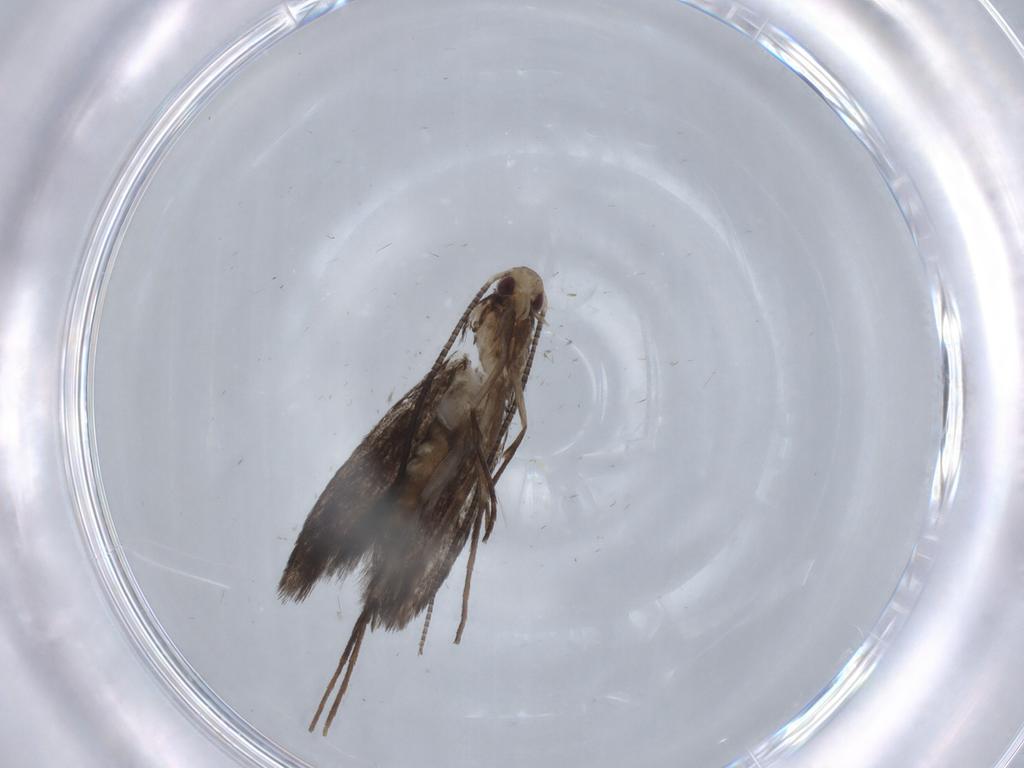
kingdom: Animalia
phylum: Arthropoda
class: Insecta
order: Lepidoptera
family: Gracillariidae
